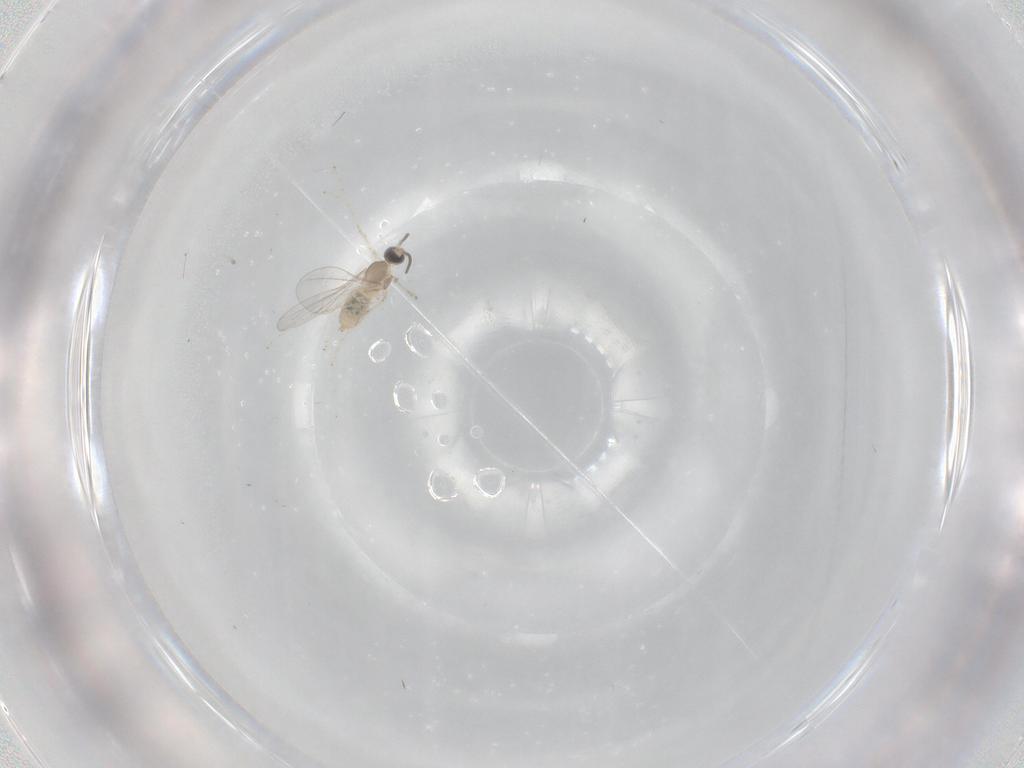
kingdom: Animalia
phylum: Arthropoda
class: Insecta
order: Diptera
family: Cecidomyiidae
